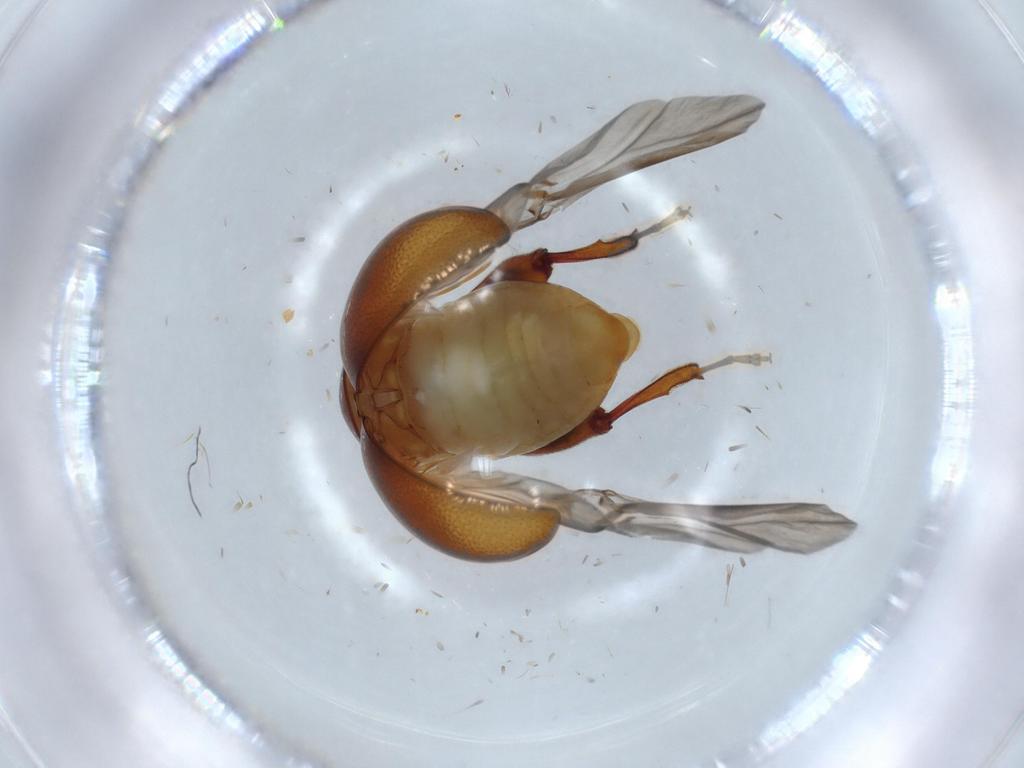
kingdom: Animalia
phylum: Arthropoda
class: Insecta
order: Coleoptera
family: Chrysomelidae
